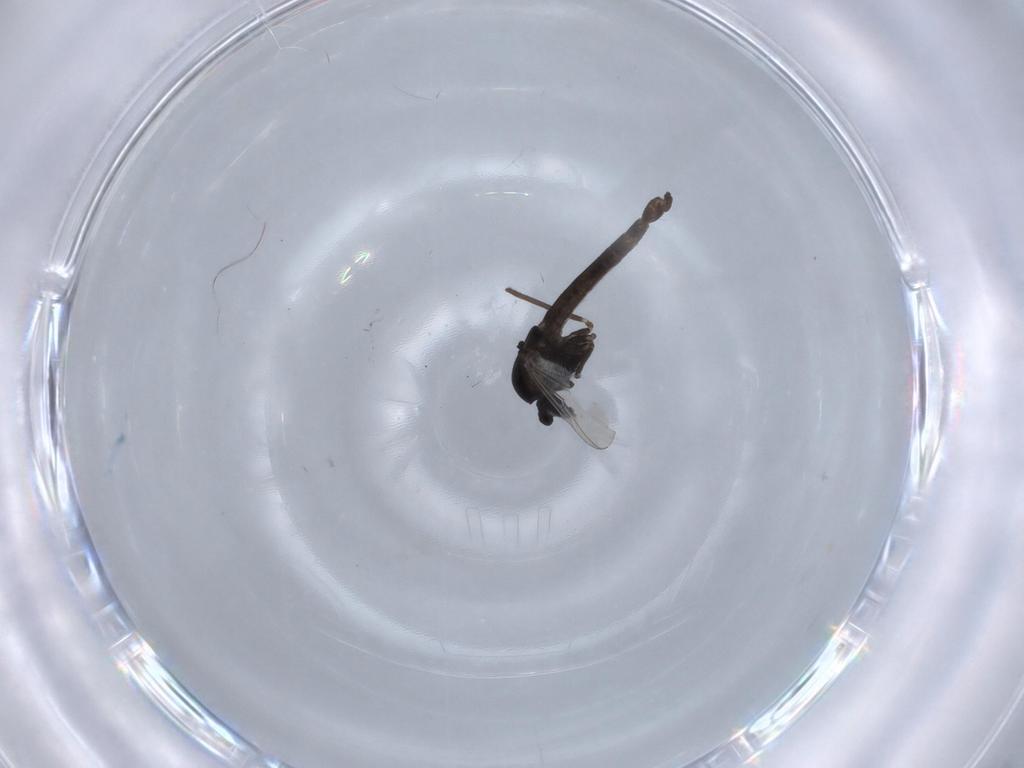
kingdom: Animalia
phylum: Arthropoda
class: Insecta
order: Diptera
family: Chironomidae
